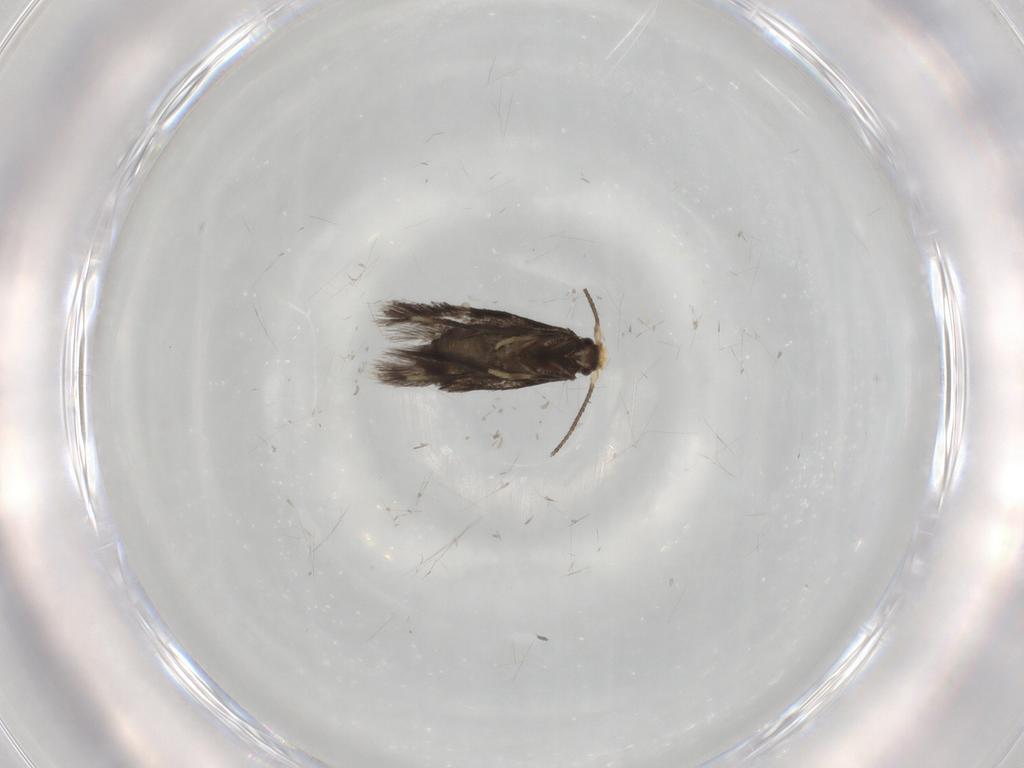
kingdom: Animalia
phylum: Arthropoda
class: Insecta
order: Lepidoptera
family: Nepticulidae
